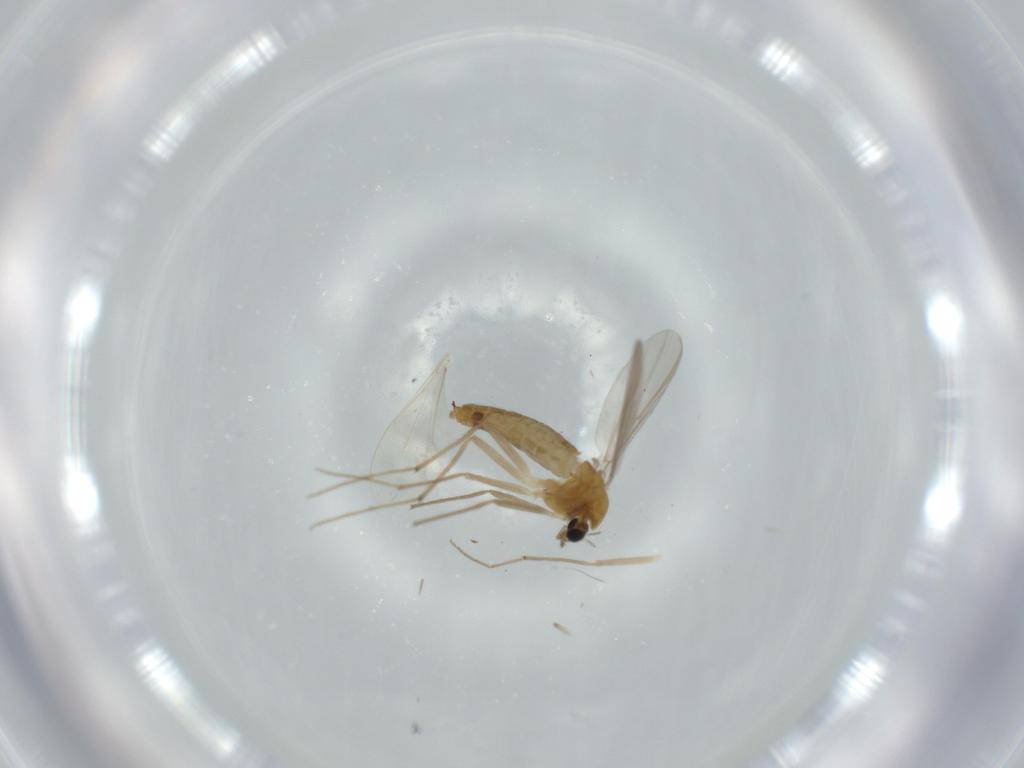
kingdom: Animalia
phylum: Arthropoda
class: Insecta
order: Diptera
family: Chironomidae
